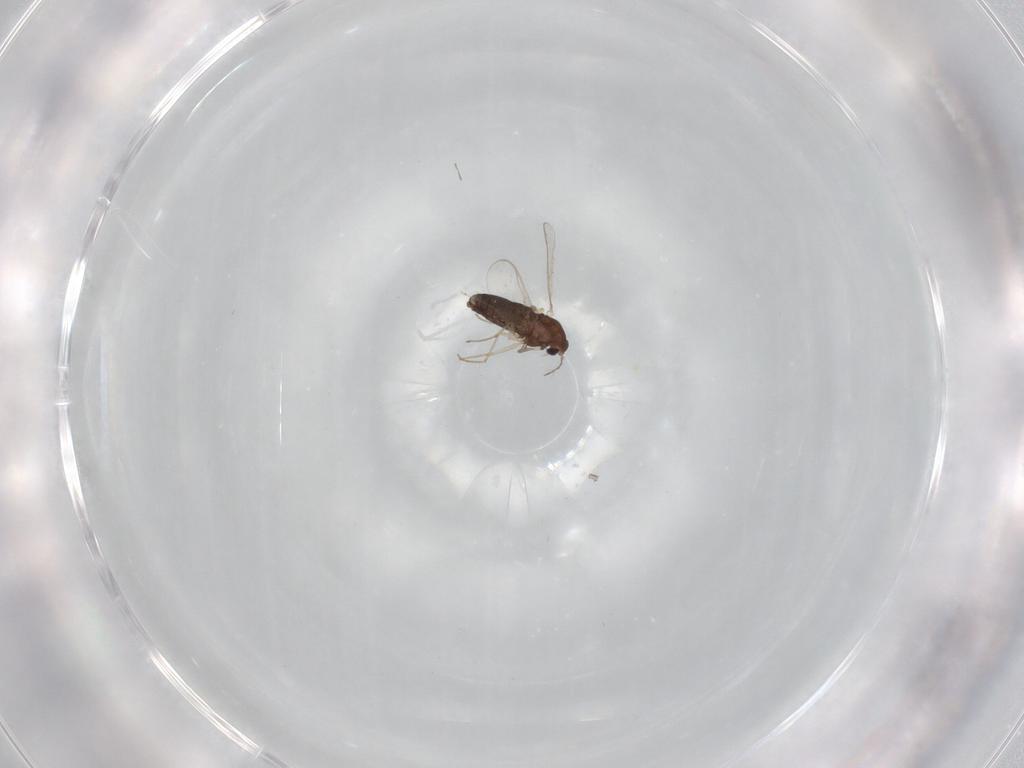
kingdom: Animalia
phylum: Arthropoda
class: Insecta
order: Diptera
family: Chironomidae
